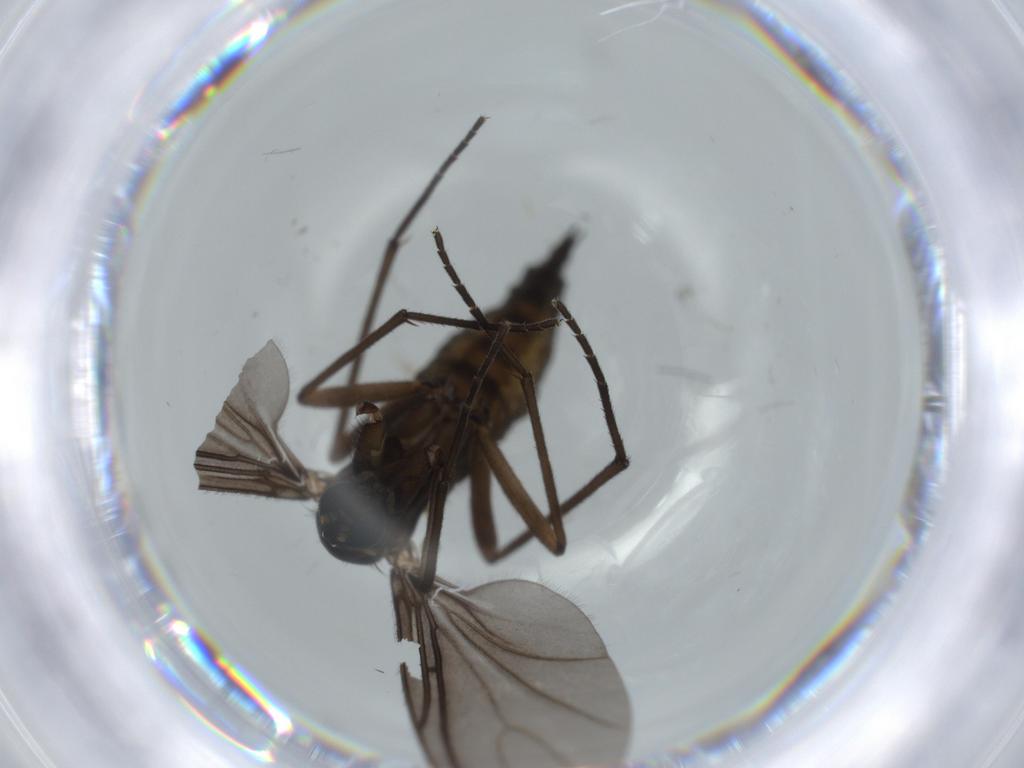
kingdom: Animalia
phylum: Arthropoda
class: Insecta
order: Diptera
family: Sciaridae
